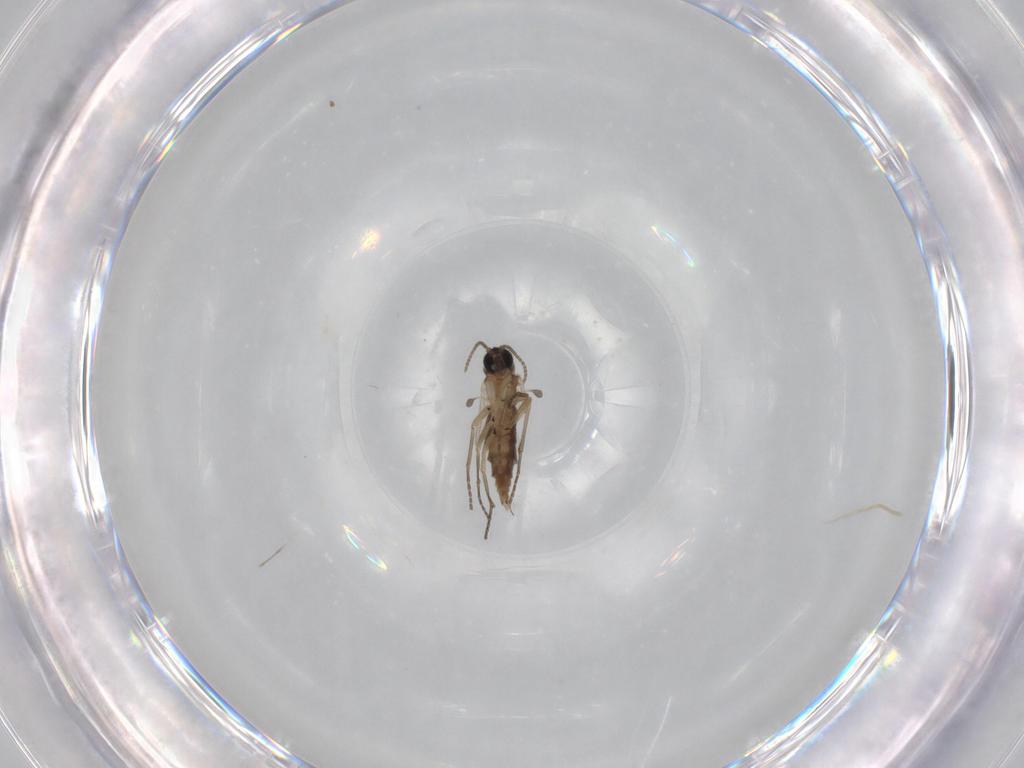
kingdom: Animalia
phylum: Arthropoda
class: Insecta
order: Diptera
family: Sciaridae
